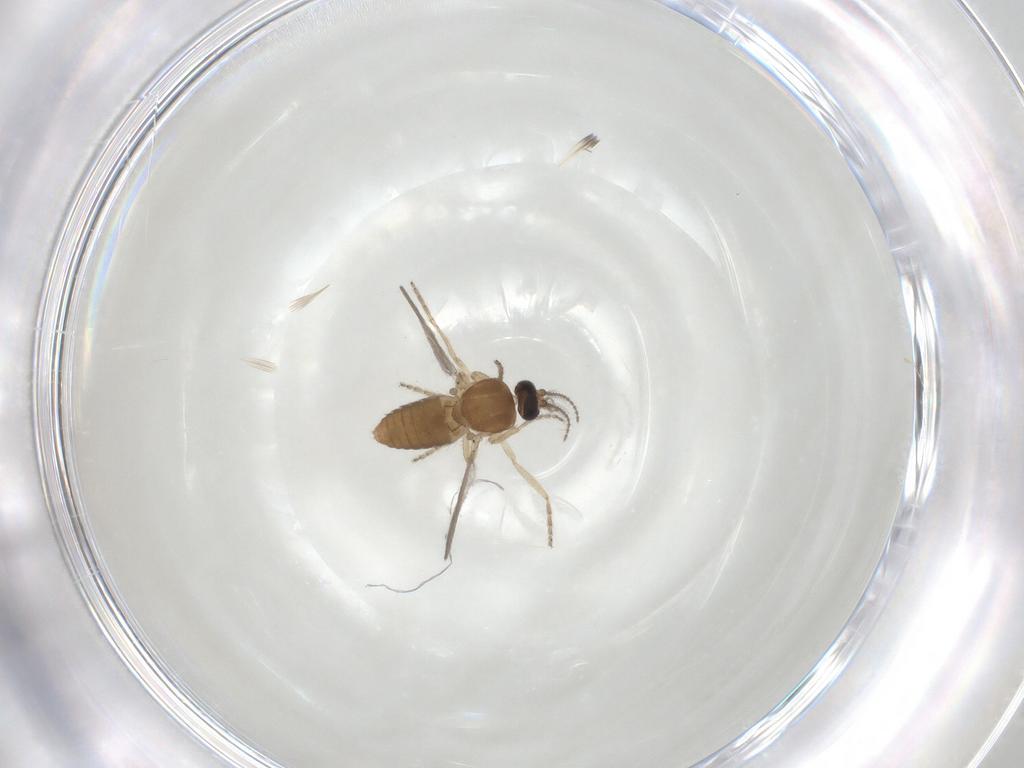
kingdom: Animalia
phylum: Arthropoda
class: Insecta
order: Diptera
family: Ceratopogonidae
